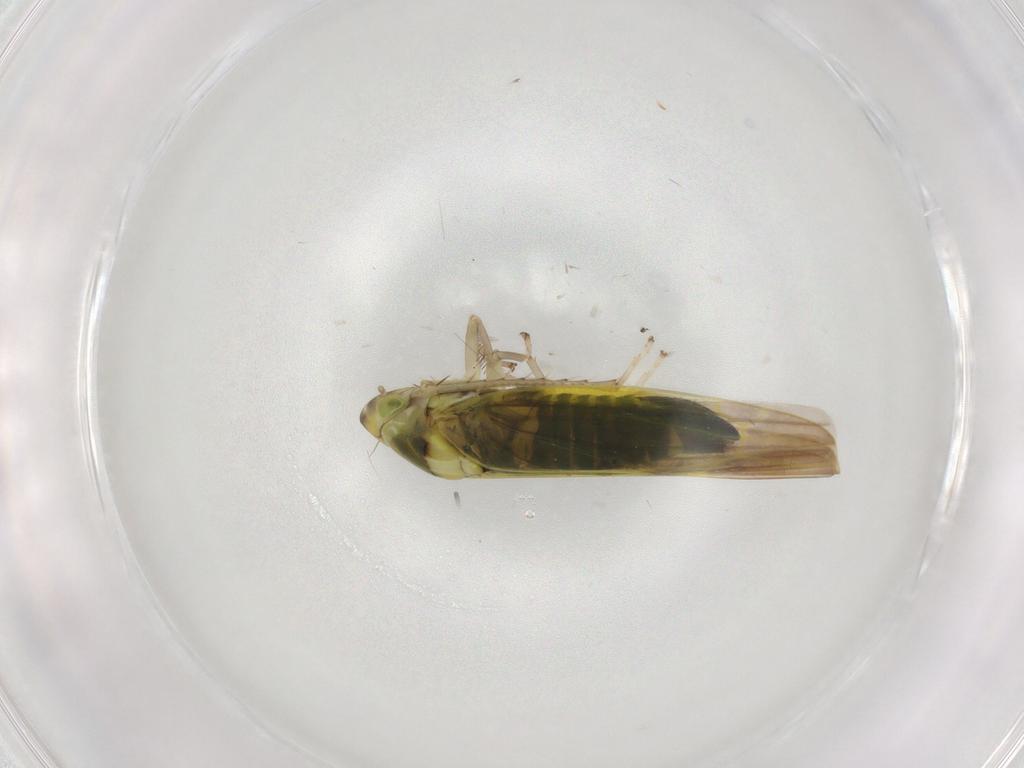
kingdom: Animalia
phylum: Arthropoda
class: Insecta
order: Hemiptera
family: Cicadellidae
